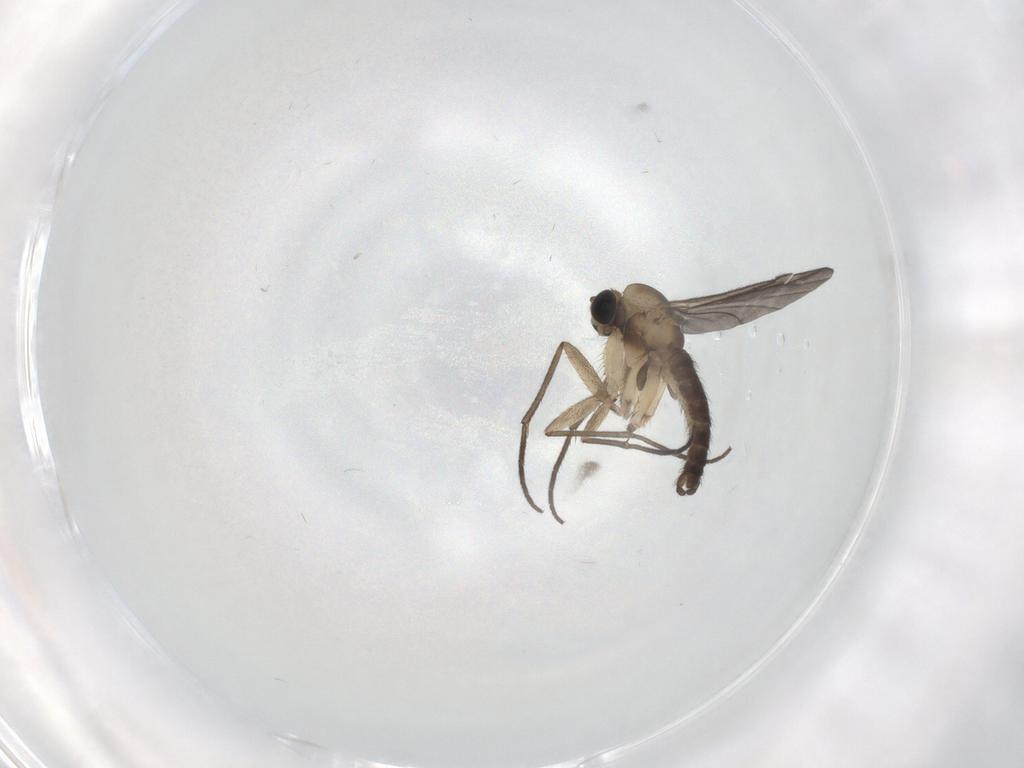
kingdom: Animalia
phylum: Arthropoda
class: Insecta
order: Diptera
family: Sciaridae
